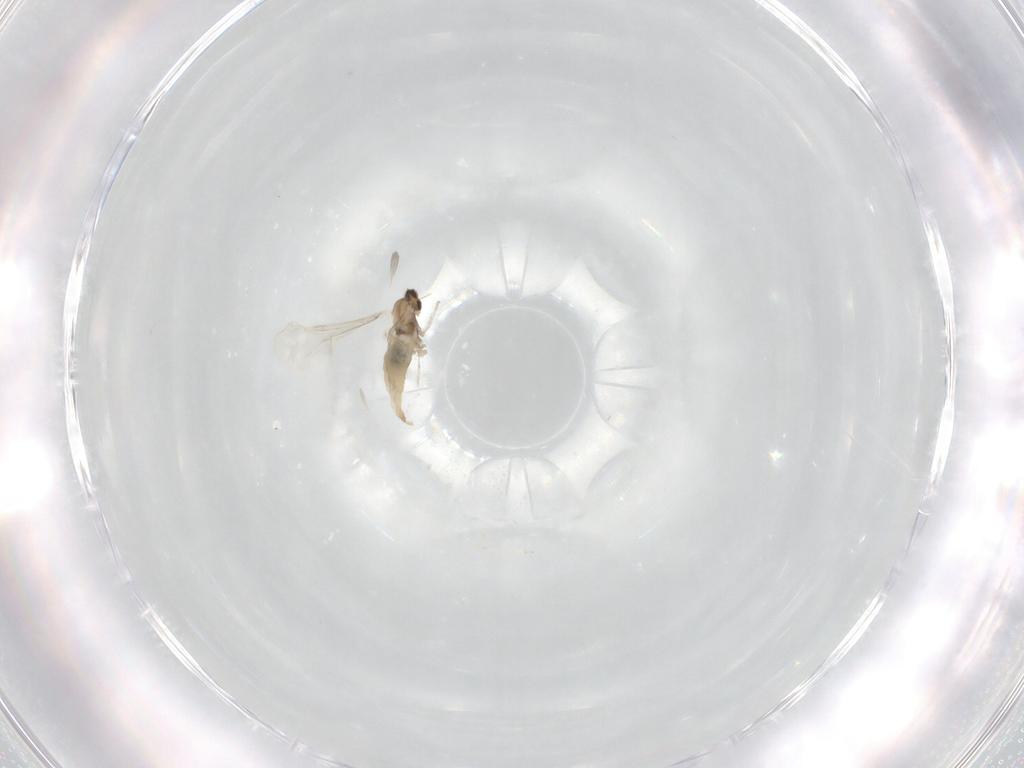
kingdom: Animalia
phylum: Arthropoda
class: Insecta
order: Diptera
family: Cecidomyiidae
